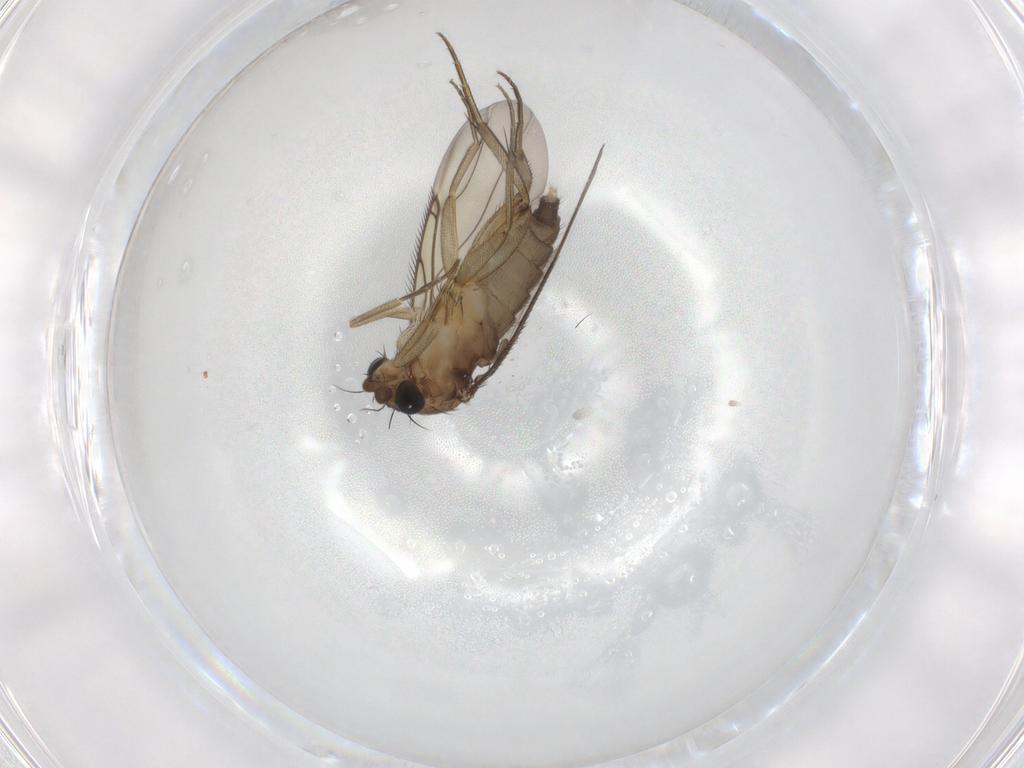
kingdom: Animalia
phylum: Arthropoda
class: Insecta
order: Diptera
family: Phoridae
